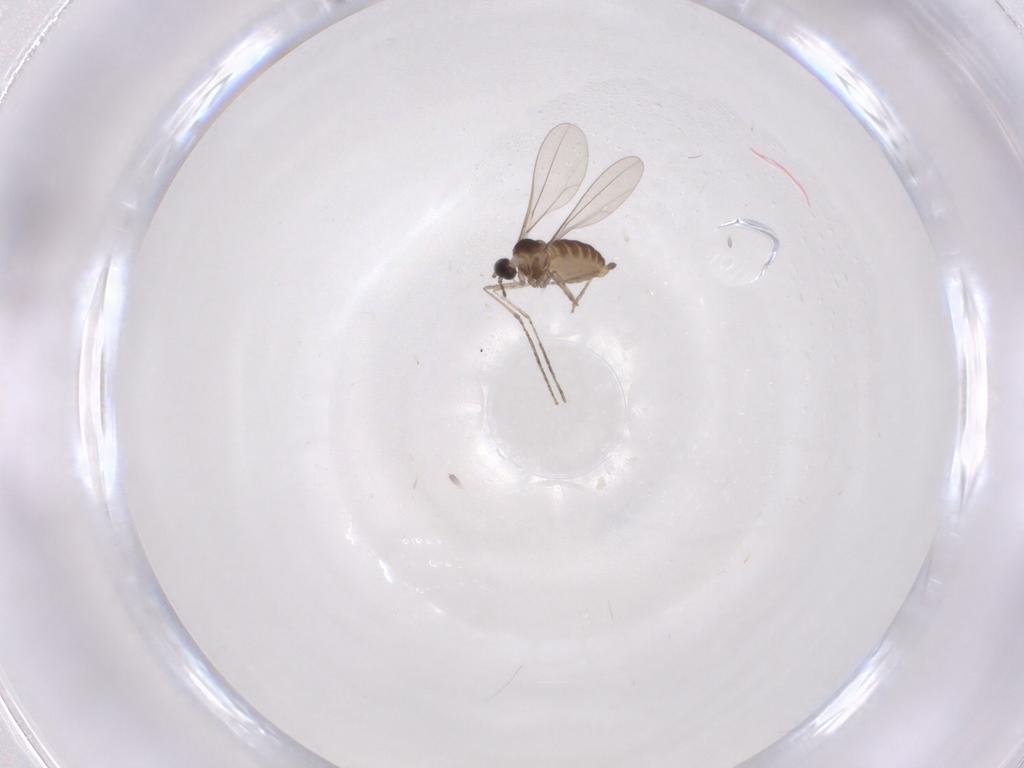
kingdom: Animalia
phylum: Arthropoda
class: Insecta
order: Diptera
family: Cecidomyiidae
